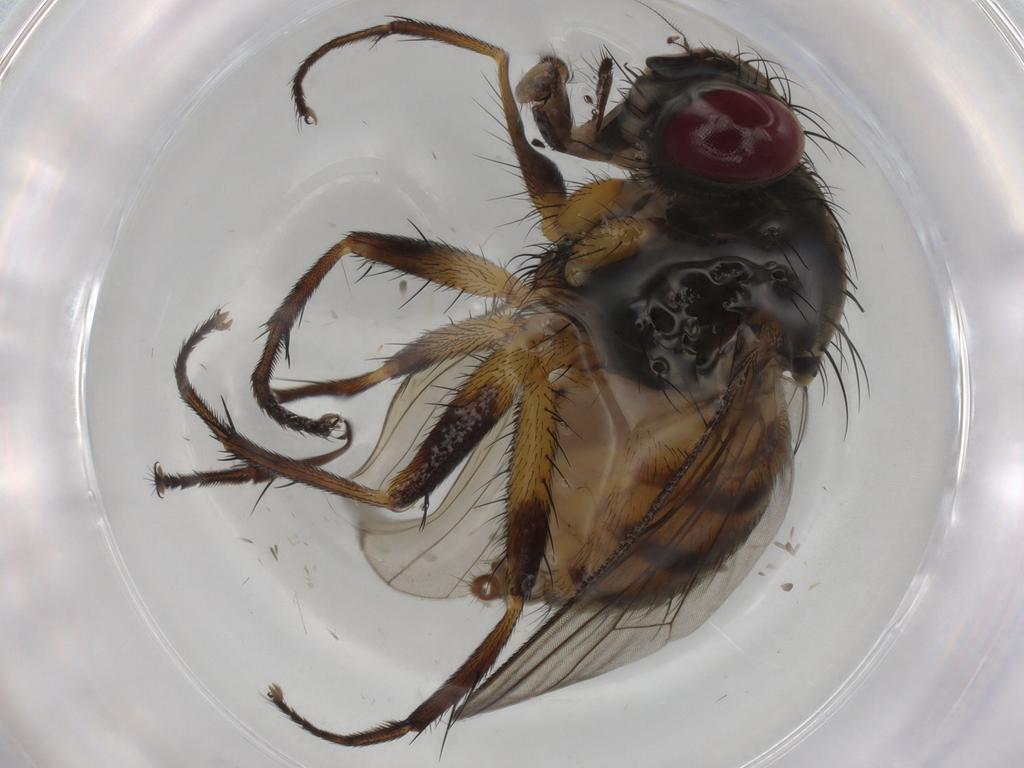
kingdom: Animalia
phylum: Arthropoda
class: Insecta
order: Diptera
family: Muscidae
